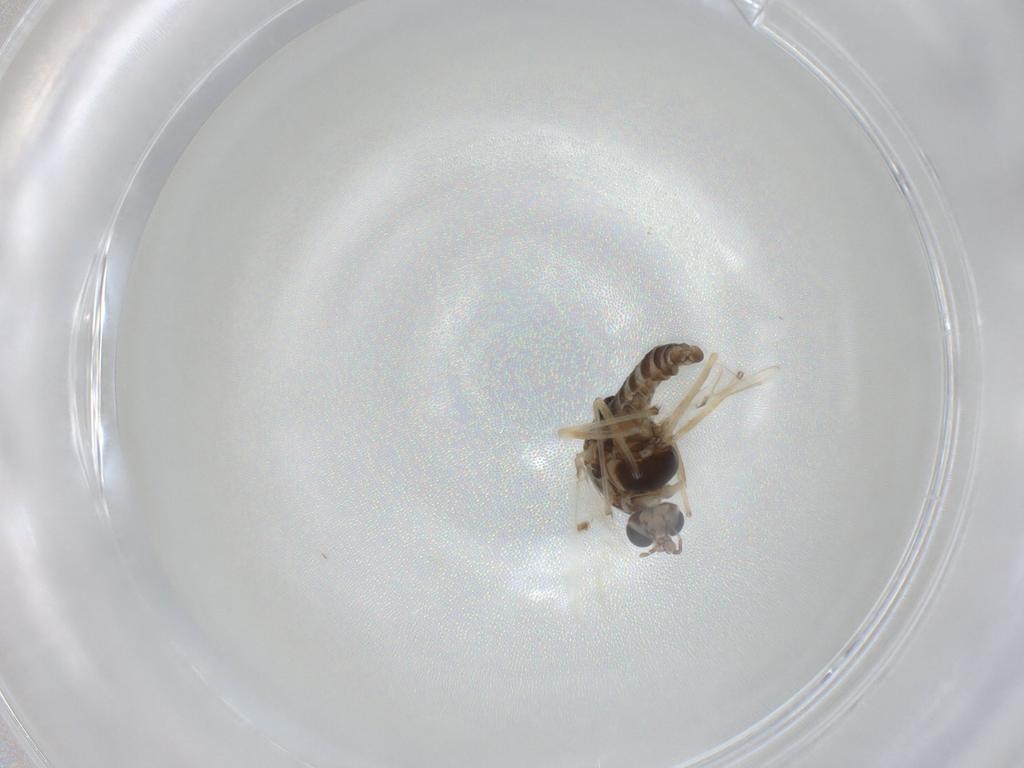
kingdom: Animalia
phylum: Arthropoda
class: Insecta
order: Diptera
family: Chironomidae
